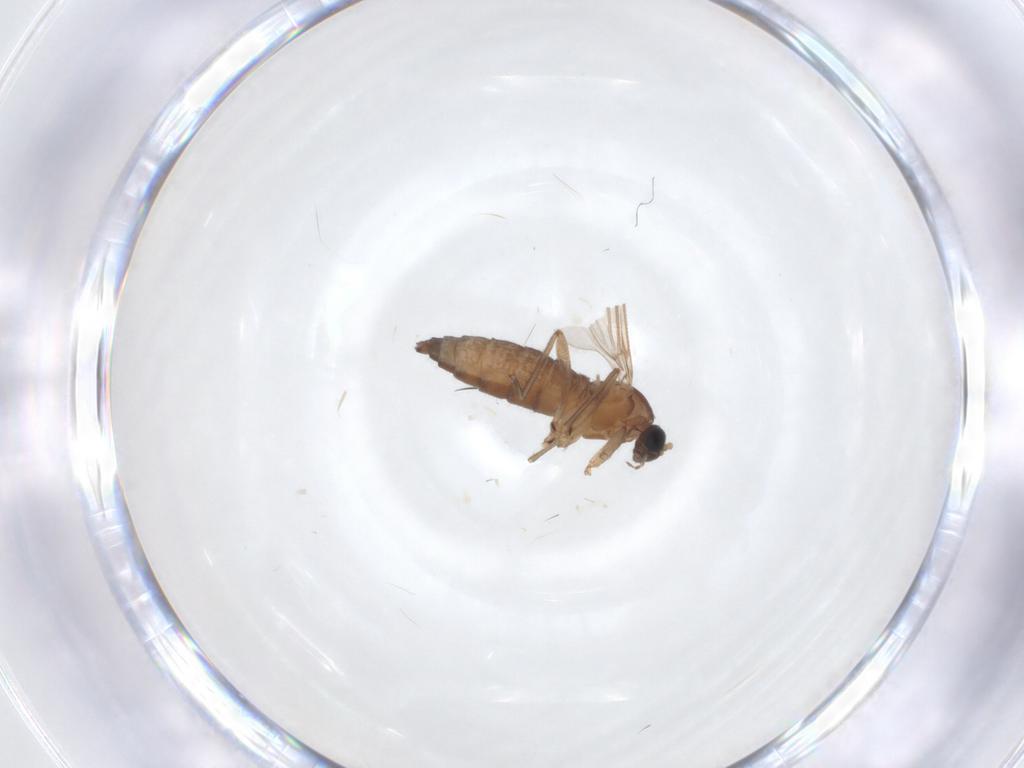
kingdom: Animalia
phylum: Arthropoda
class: Insecta
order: Diptera
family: Sciaridae
